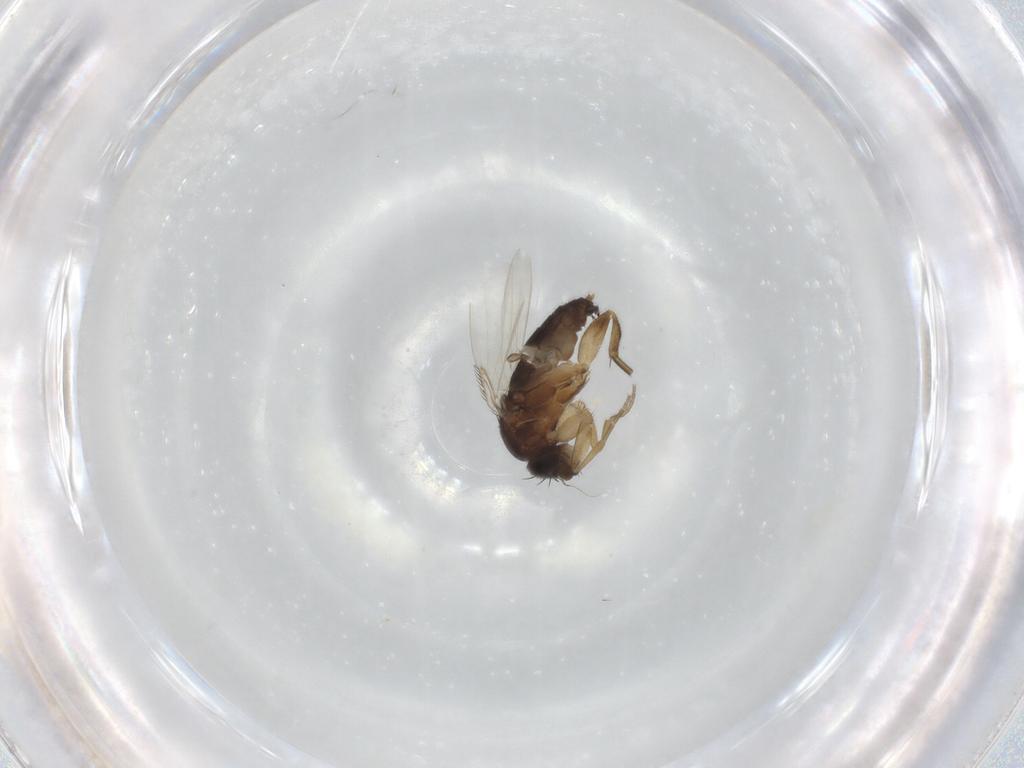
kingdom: Animalia
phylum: Arthropoda
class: Insecta
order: Diptera
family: Phoridae
